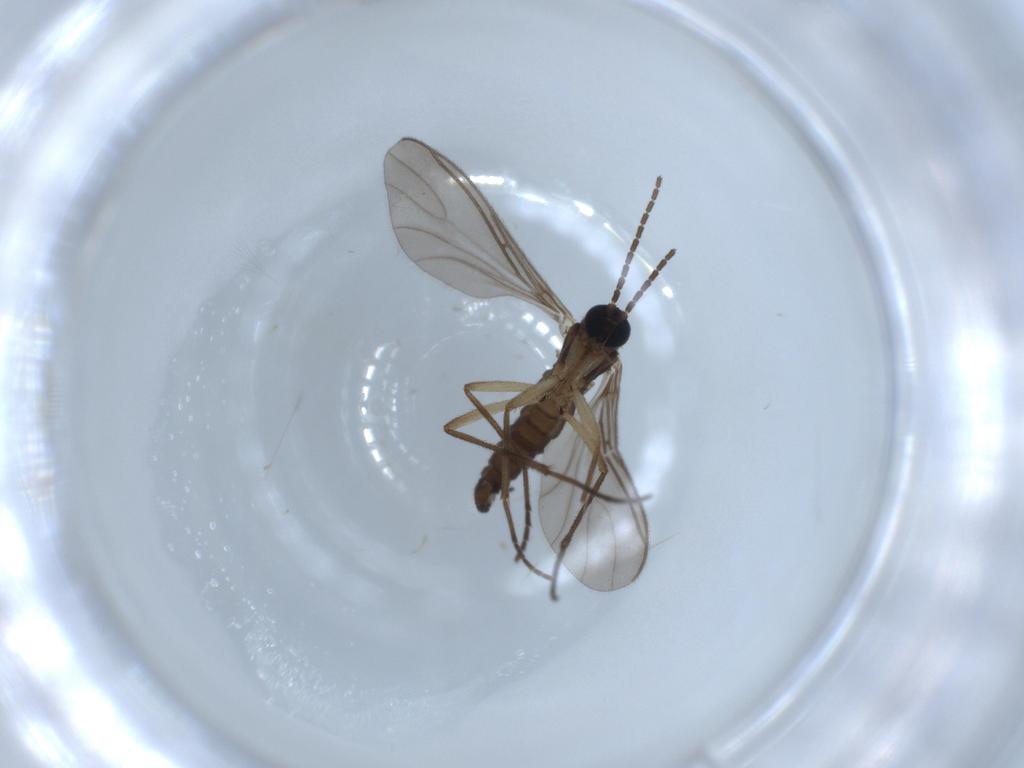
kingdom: Animalia
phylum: Arthropoda
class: Insecta
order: Diptera
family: Sciaridae
